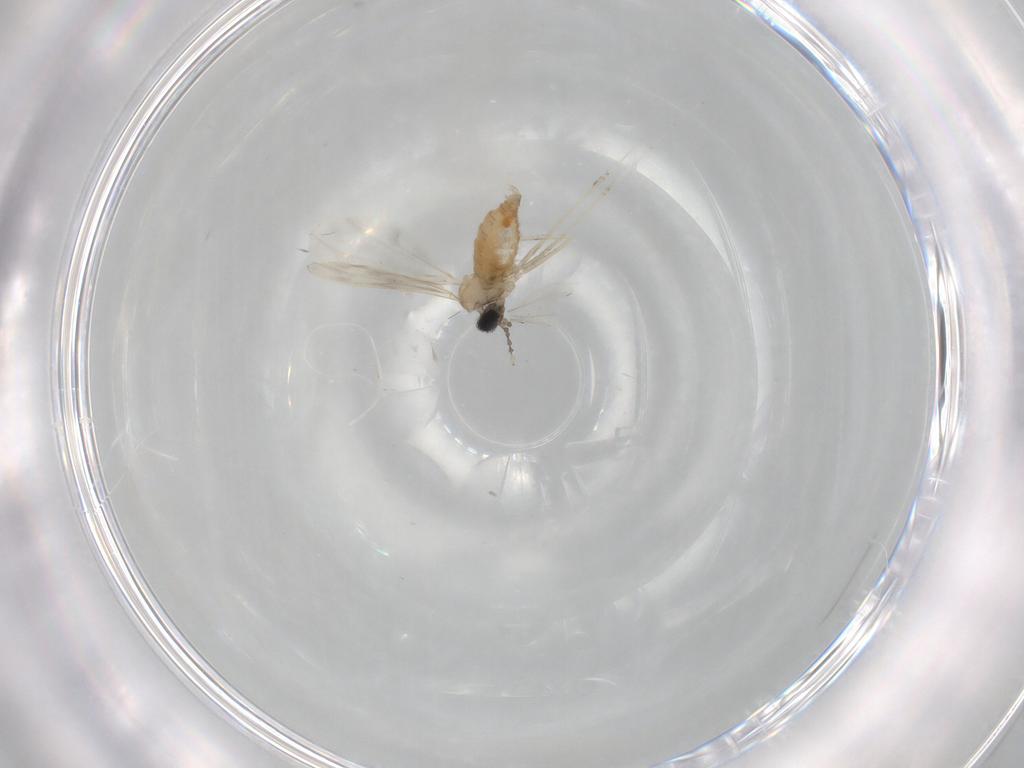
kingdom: Animalia
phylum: Arthropoda
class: Insecta
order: Diptera
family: Cecidomyiidae
